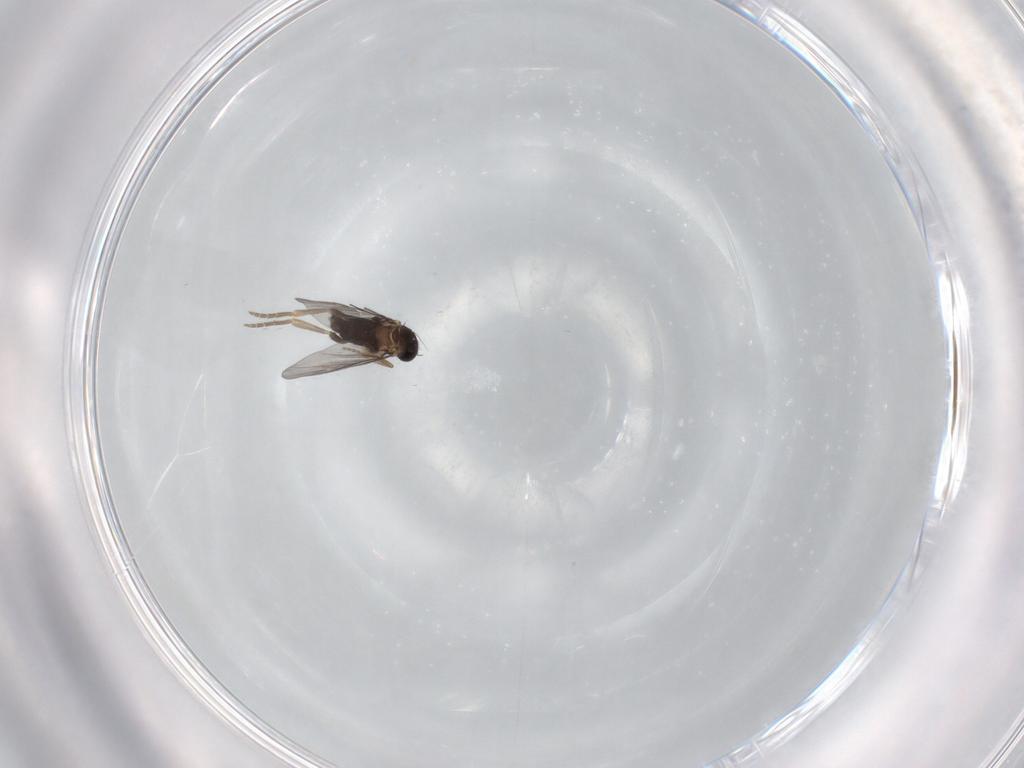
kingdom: Animalia
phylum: Arthropoda
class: Insecta
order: Diptera
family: Ceratopogonidae
